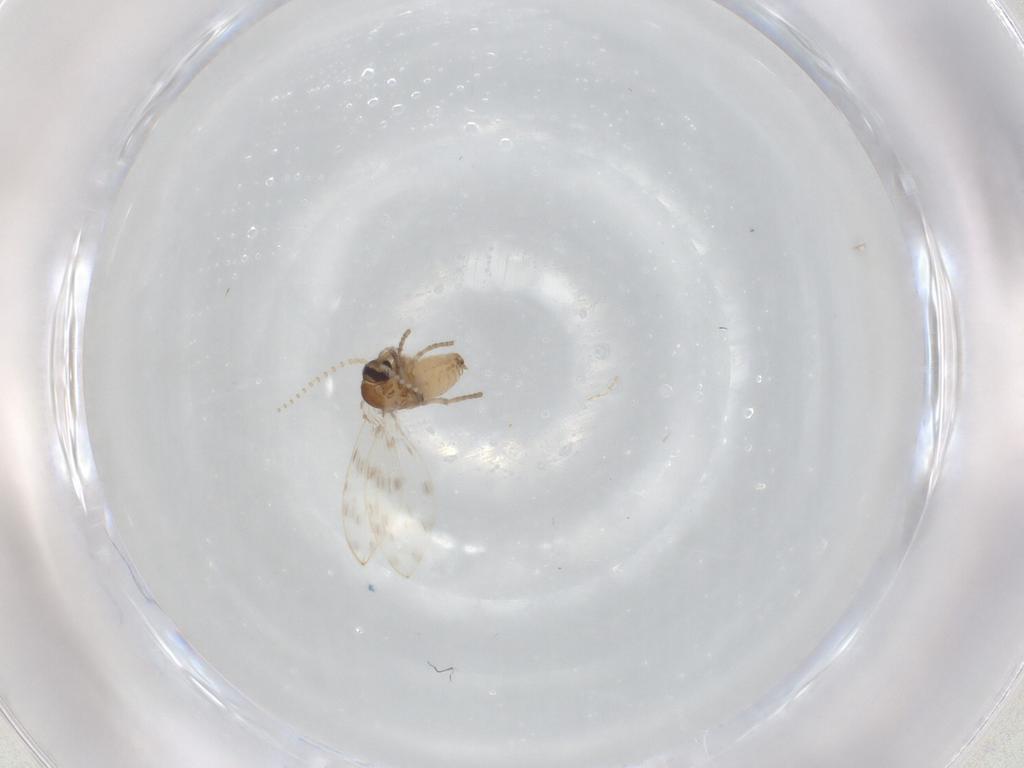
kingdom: Animalia
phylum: Arthropoda
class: Insecta
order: Diptera
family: Psychodidae
